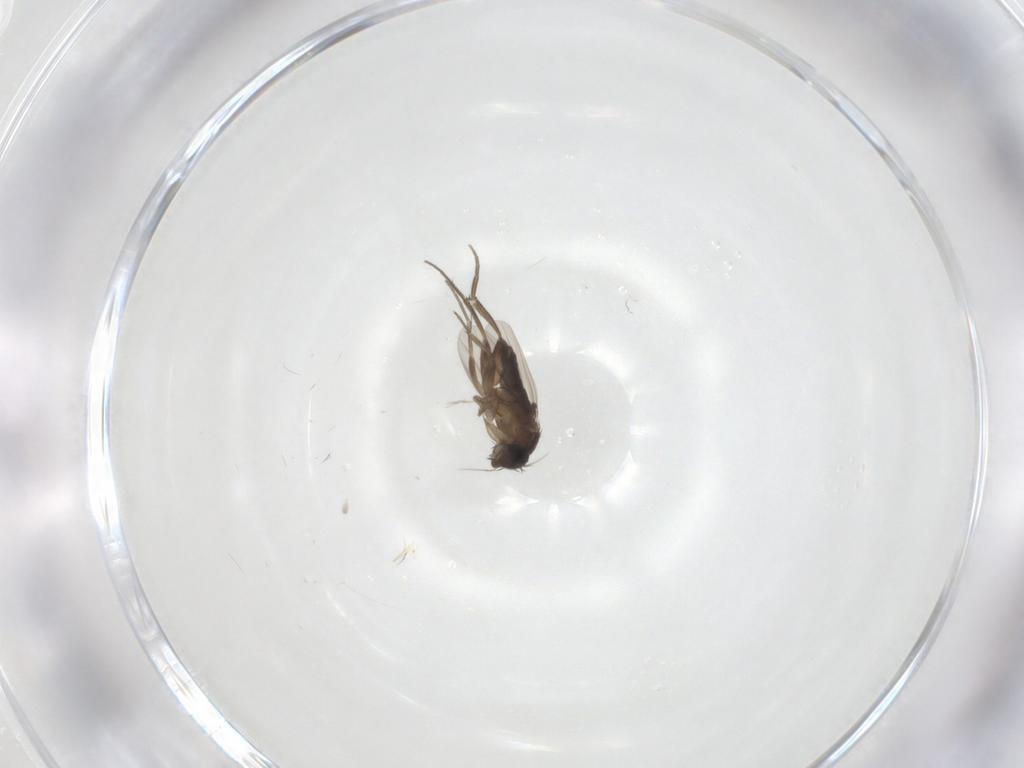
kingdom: Animalia
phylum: Arthropoda
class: Insecta
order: Diptera
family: Phoridae
